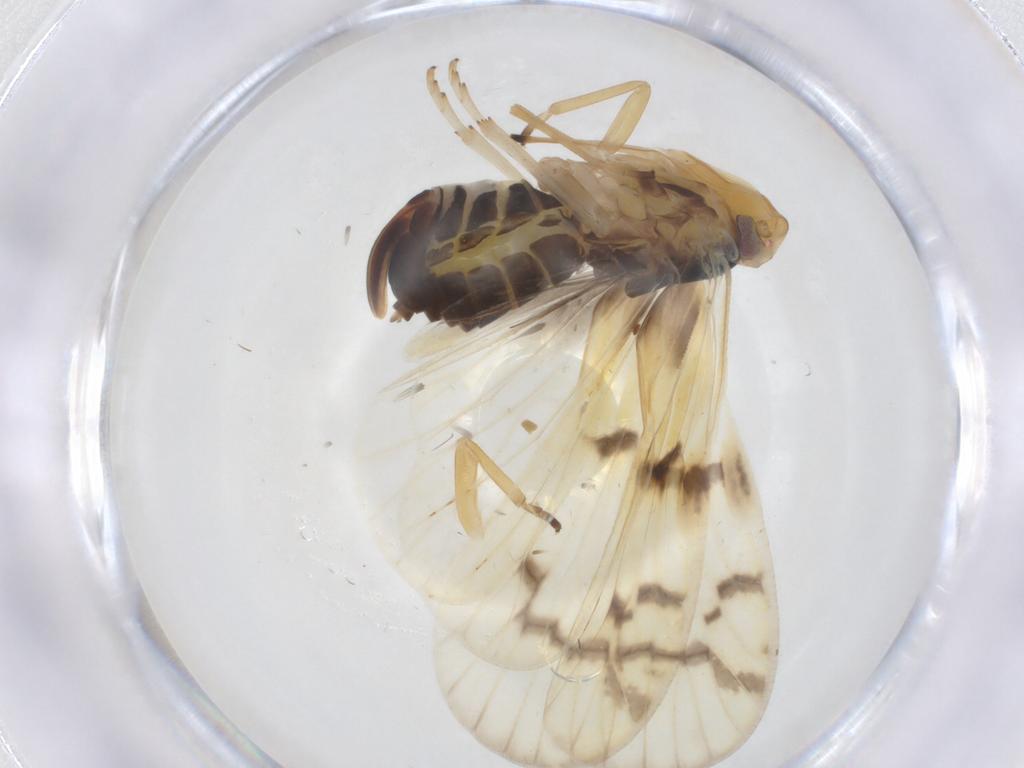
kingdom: Animalia
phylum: Arthropoda
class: Insecta
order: Hemiptera
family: Cixiidae
